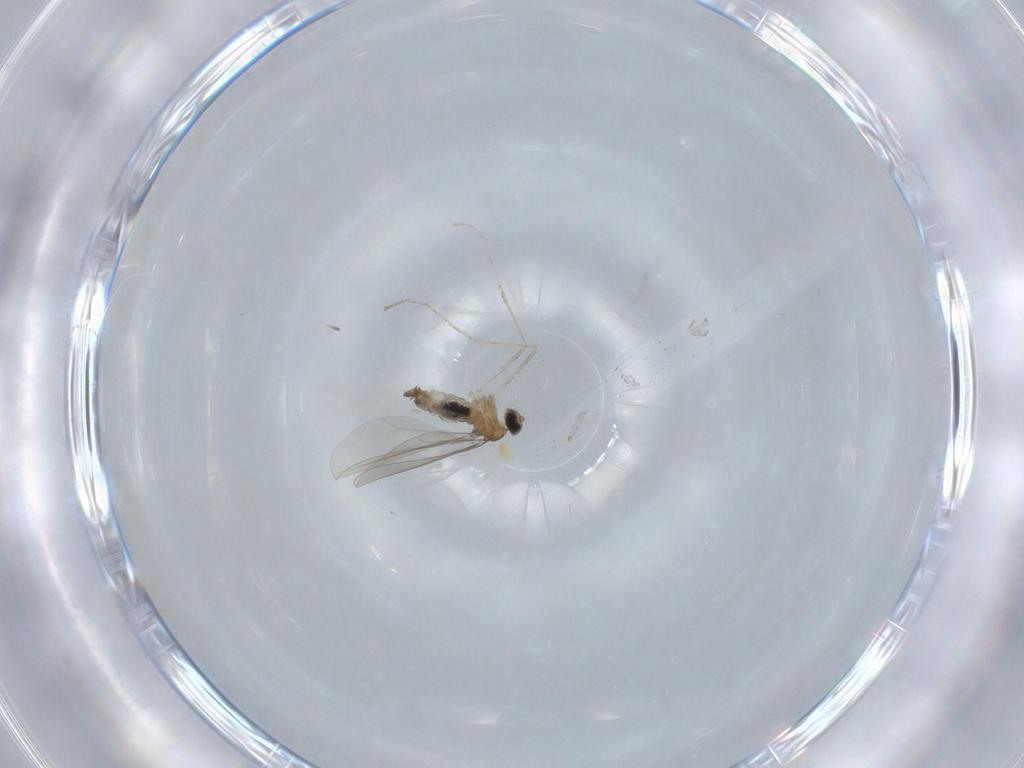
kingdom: Animalia
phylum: Arthropoda
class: Insecta
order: Diptera
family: Cecidomyiidae
